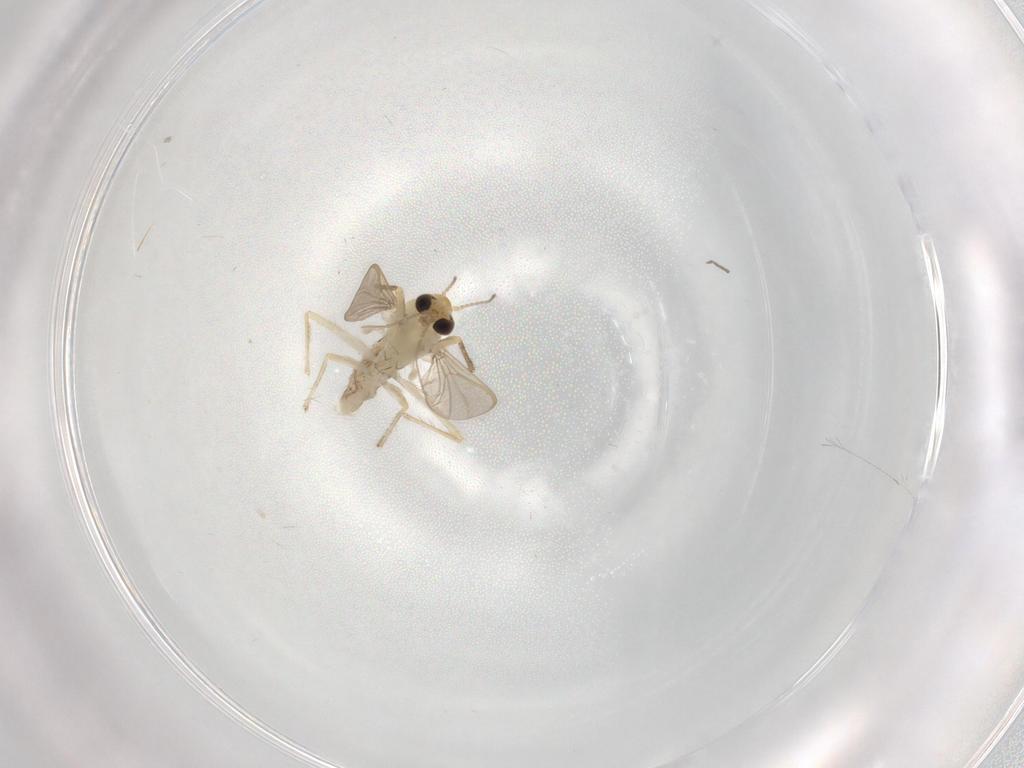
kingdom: Animalia
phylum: Arthropoda
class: Insecta
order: Diptera
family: Chironomidae
